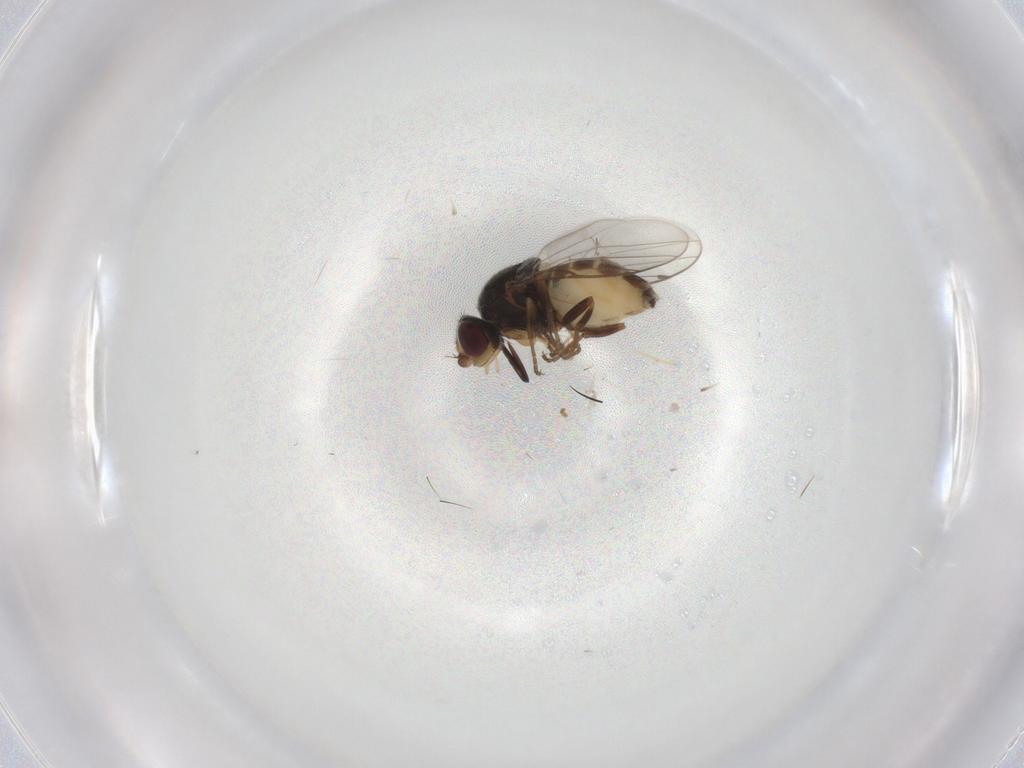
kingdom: Animalia
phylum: Arthropoda
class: Insecta
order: Diptera
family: Chloropidae
